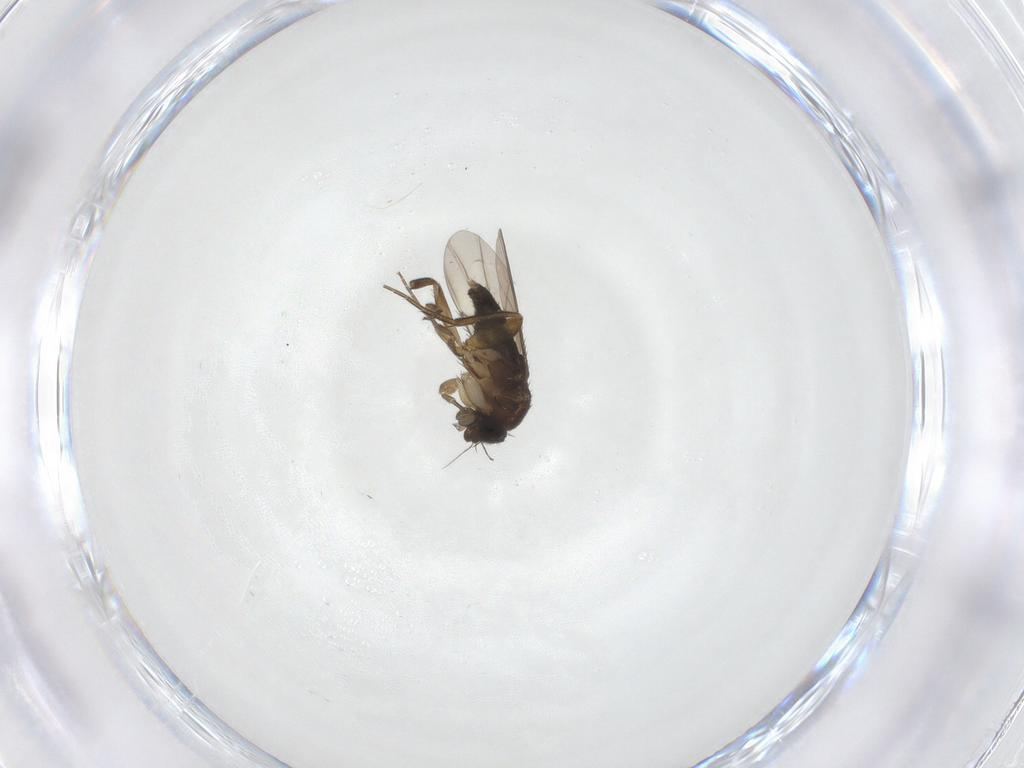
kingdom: Animalia
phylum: Arthropoda
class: Insecta
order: Diptera
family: Phoridae
